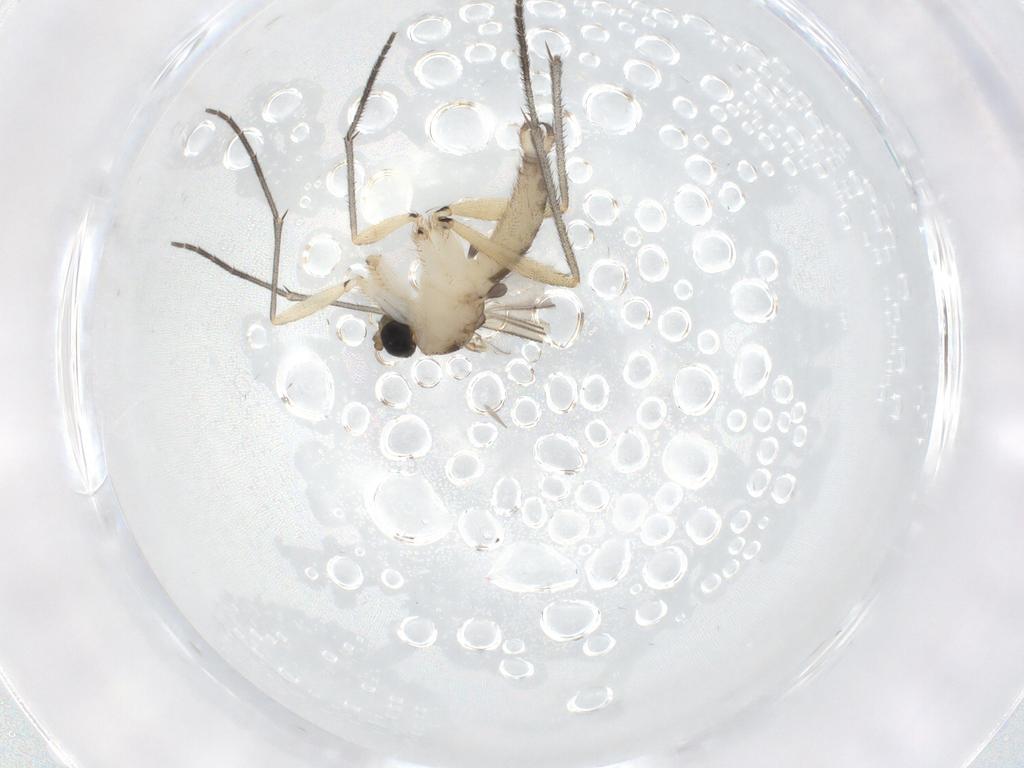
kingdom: Animalia
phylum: Arthropoda
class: Insecta
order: Diptera
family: Sciaridae
